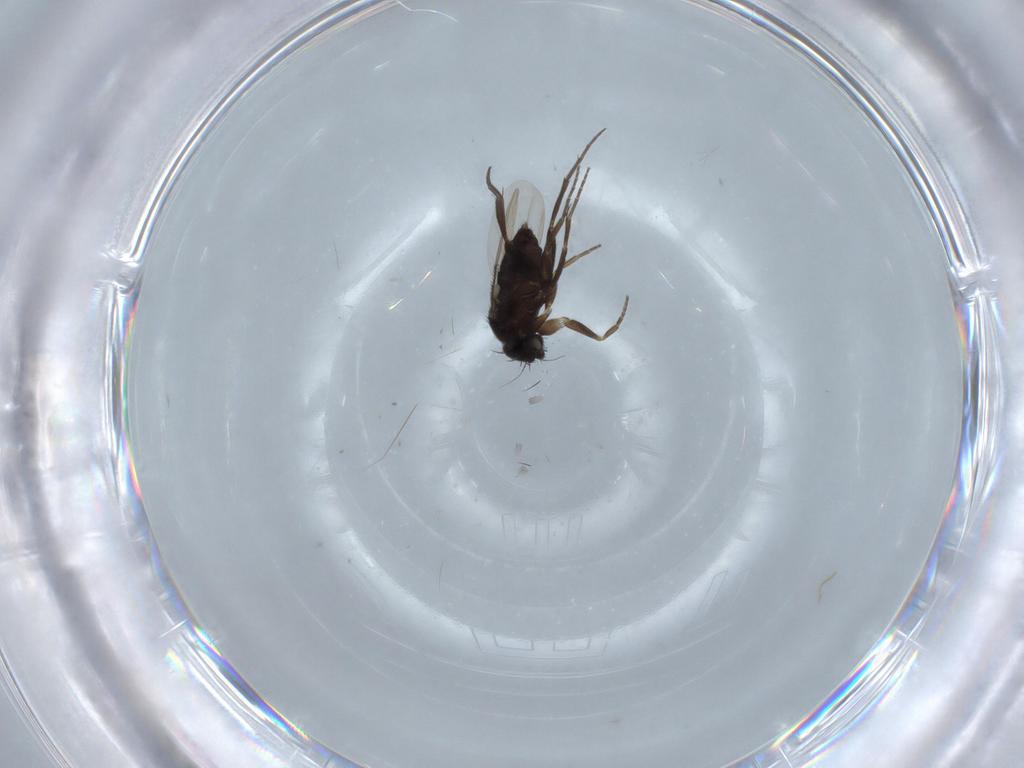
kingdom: Animalia
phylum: Arthropoda
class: Insecta
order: Diptera
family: Phoridae
